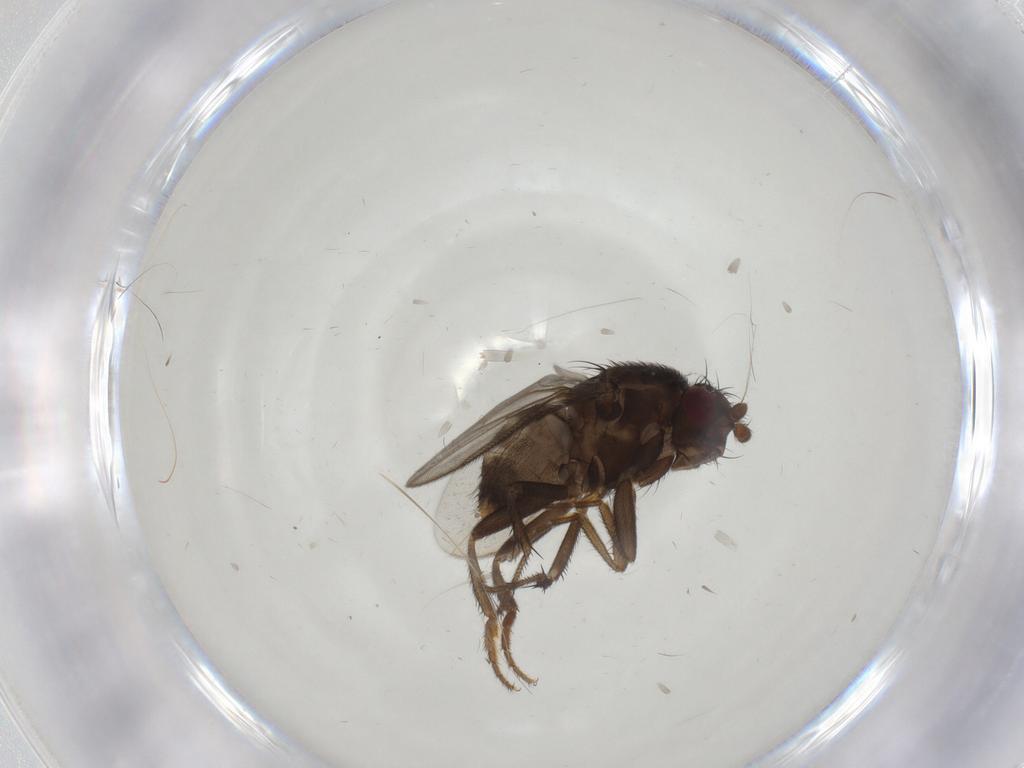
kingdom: Animalia
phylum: Arthropoda
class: Insecta
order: Diptera
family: Sphaeroceridae
